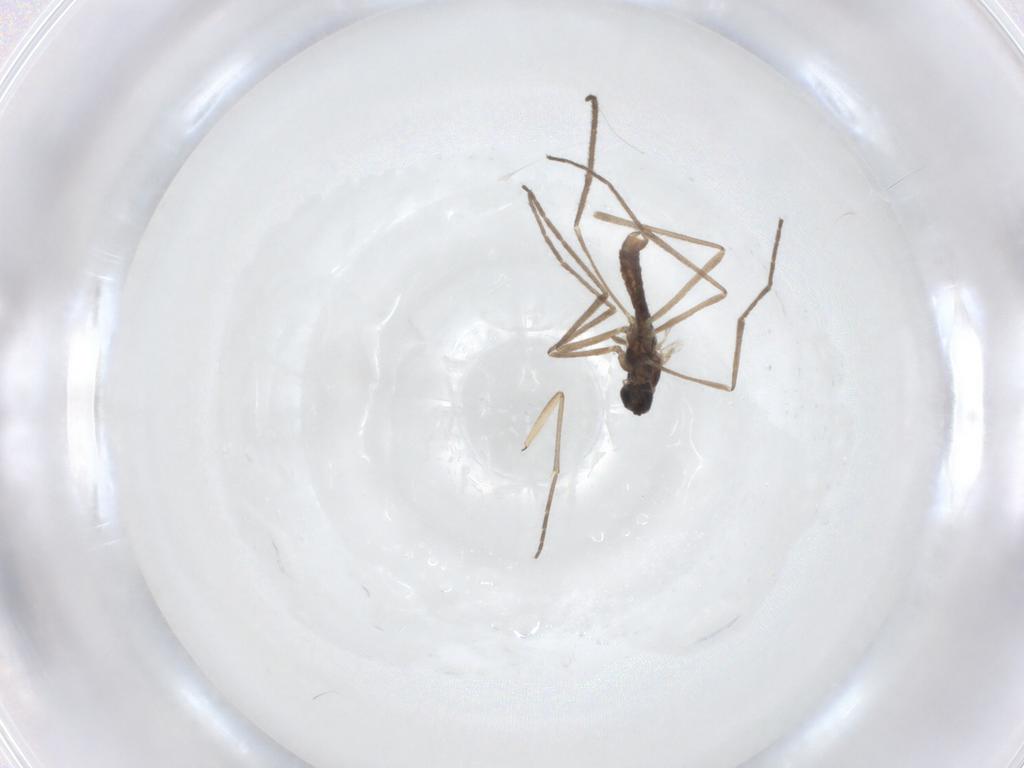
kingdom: Animalia
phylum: Arthropoda
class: Insecta
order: Diptera
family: Cecidomyiidae
